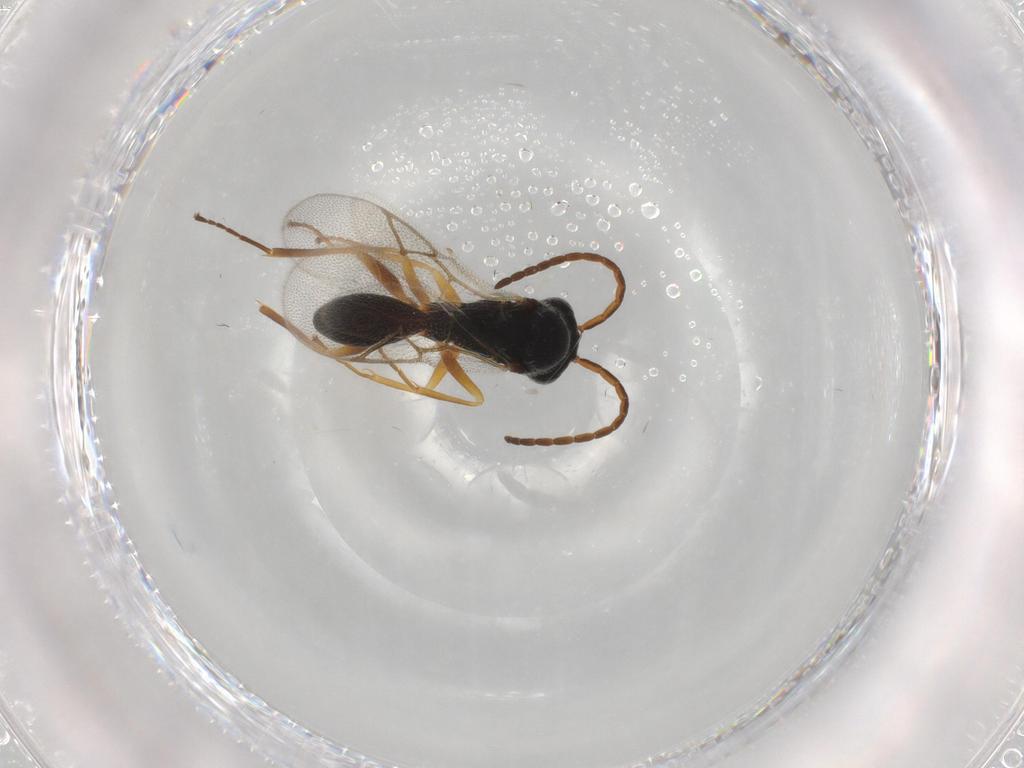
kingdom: Animalia
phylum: Arthropoda
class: Insecta
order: Hymenoptera
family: Figitidae
